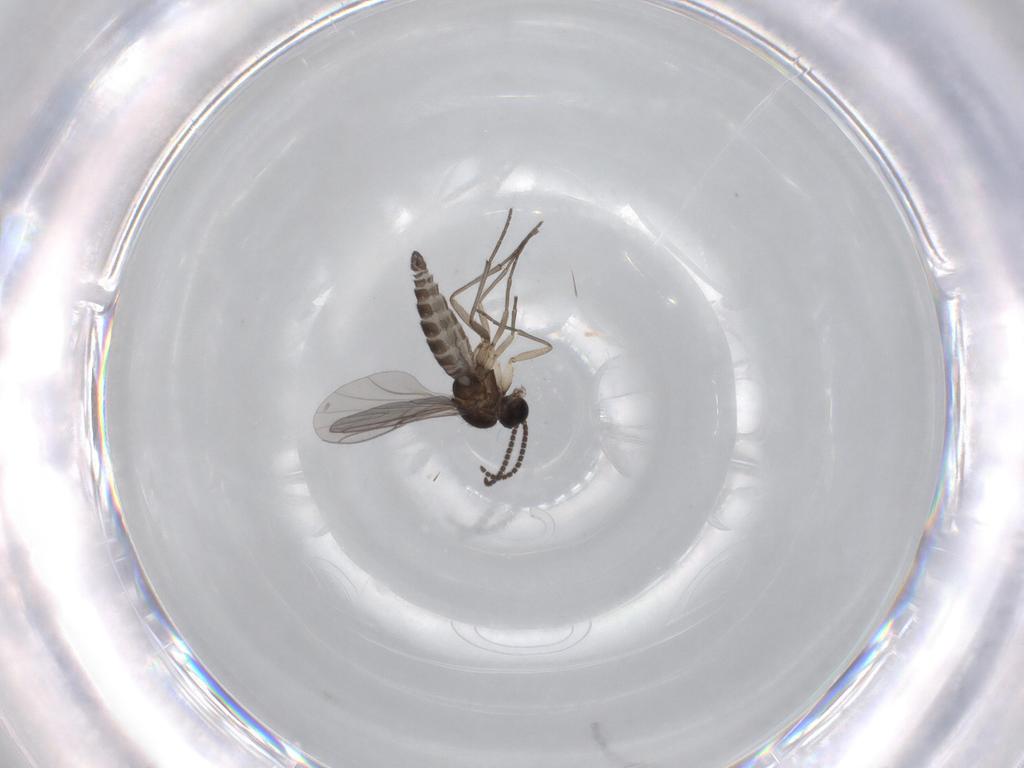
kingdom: Animalia
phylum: Arthropoda
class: Insecta
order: Diptera
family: Sciaridae
